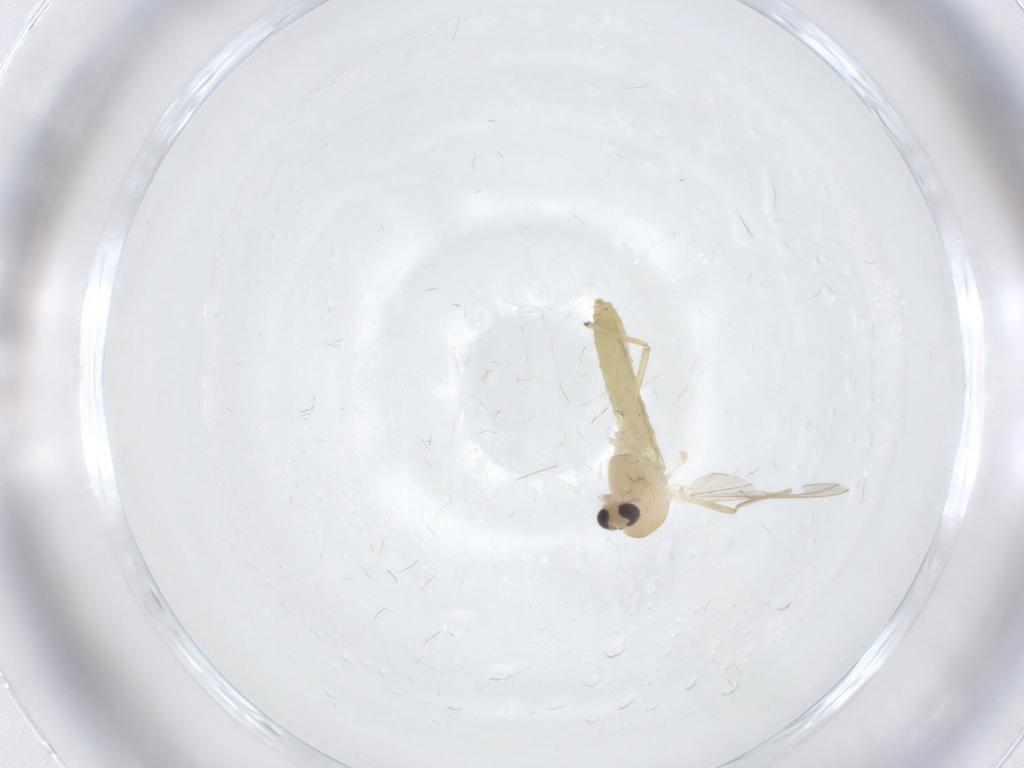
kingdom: Animalia
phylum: Arthropoda
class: Insecta
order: Diptera
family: Chironomidae
